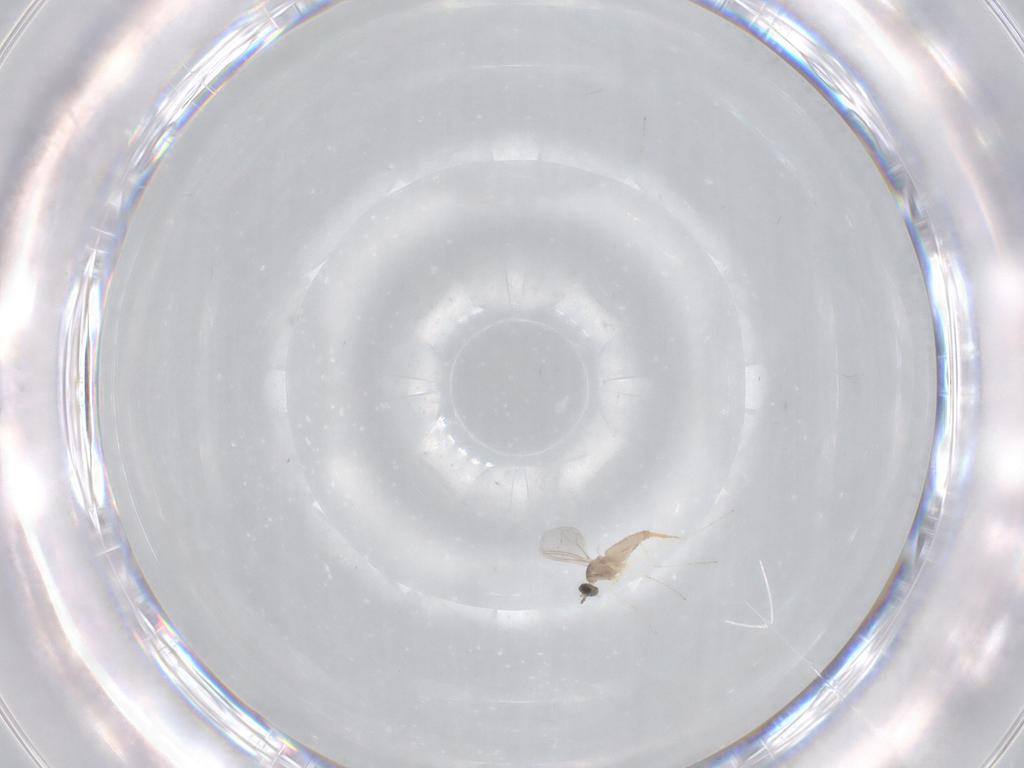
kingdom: Animalia
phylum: Arthropoda
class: Insecta
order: Diptera
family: Cecidomyiidae
